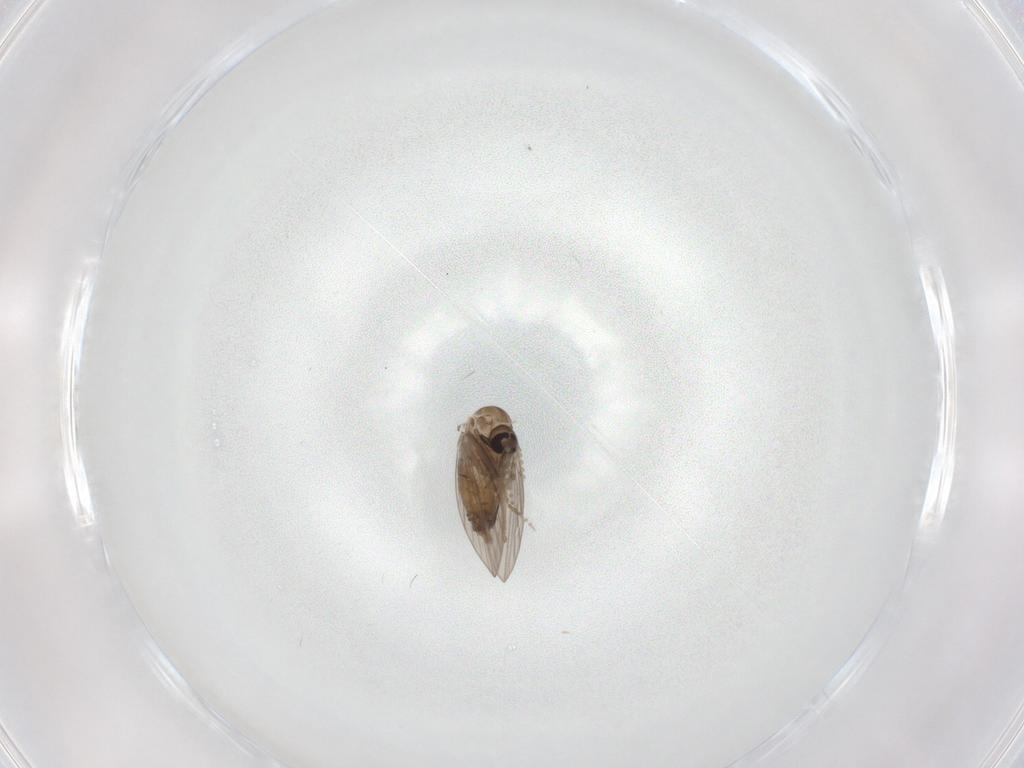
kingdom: Animalia
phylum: Arthropoda
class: Insecta
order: Diptera
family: Psychodidae
